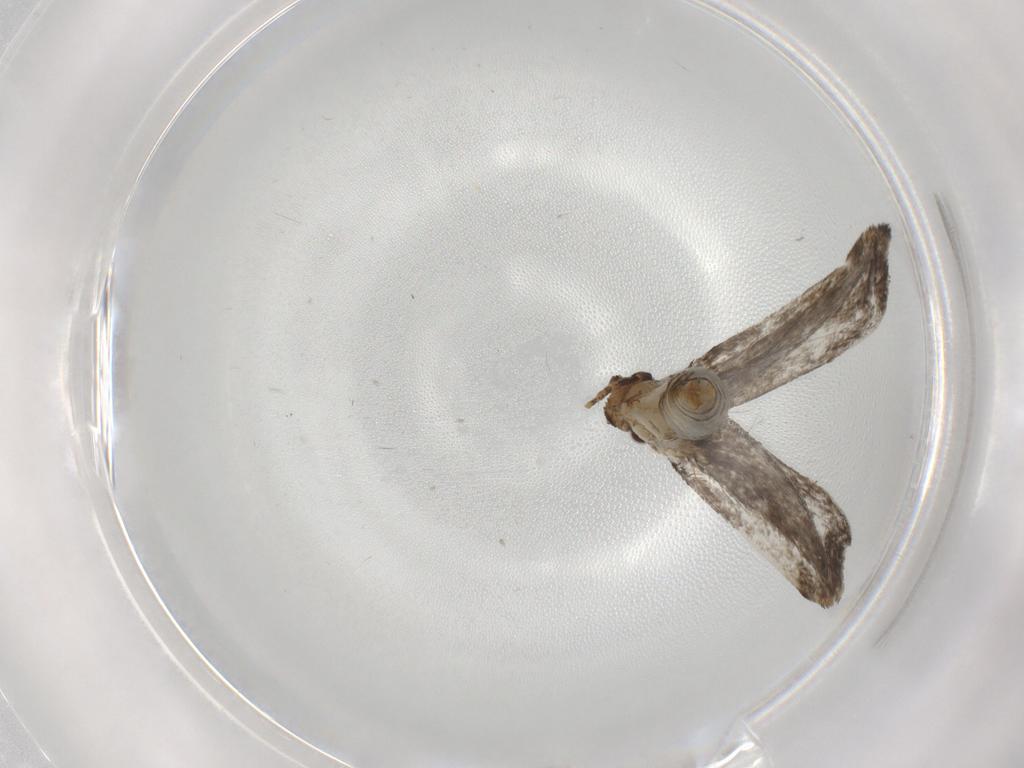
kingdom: Animalia
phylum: Arthropoda
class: Insecta
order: Lepidoptera
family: Tineidae
